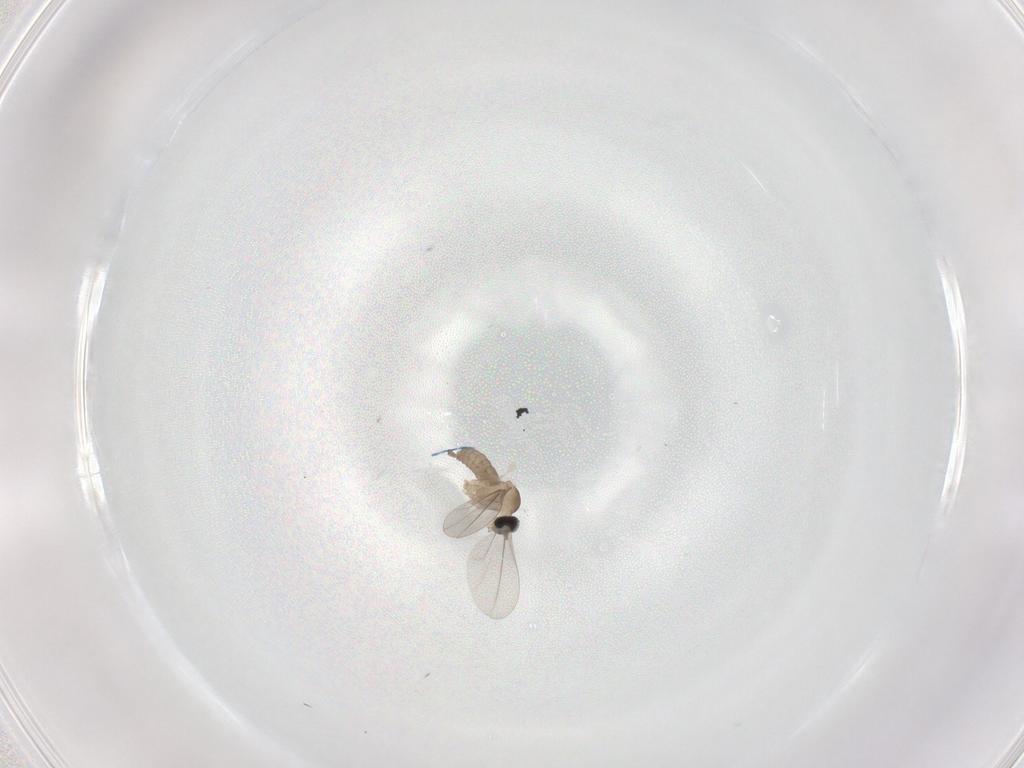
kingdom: Animalia
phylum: Arthropoda
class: Insecta
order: Diptera
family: Cecidomyiidae
